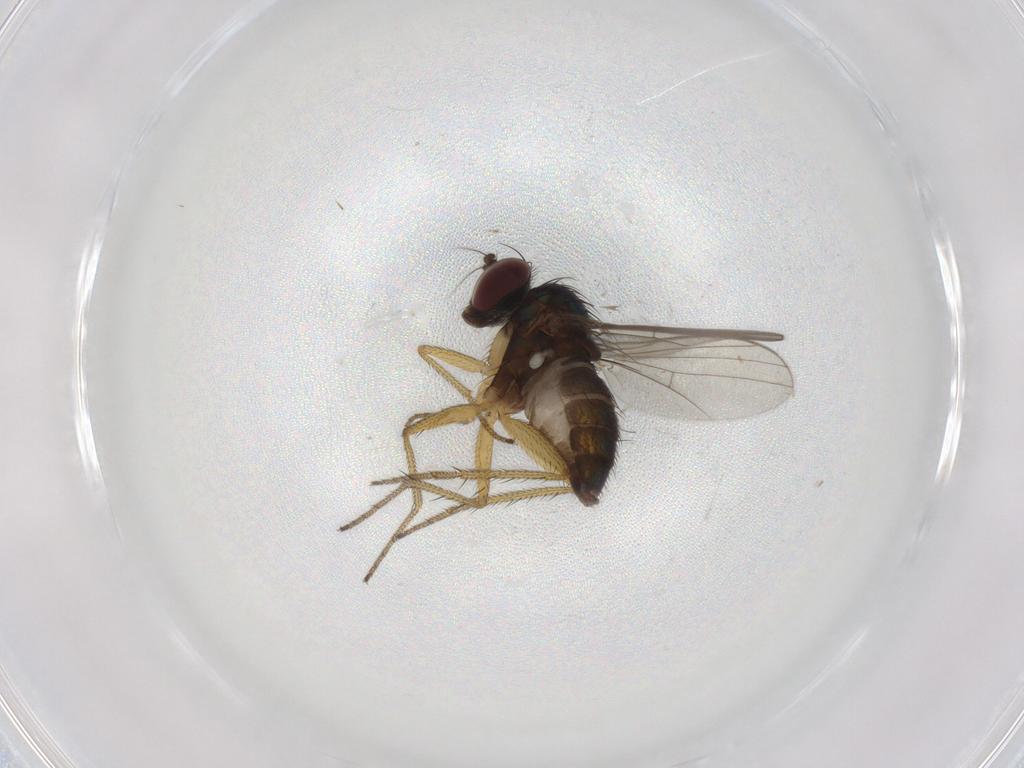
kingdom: Animalia
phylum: Arthropoda
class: Insecta
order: Diptera
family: Dolichopodidae
